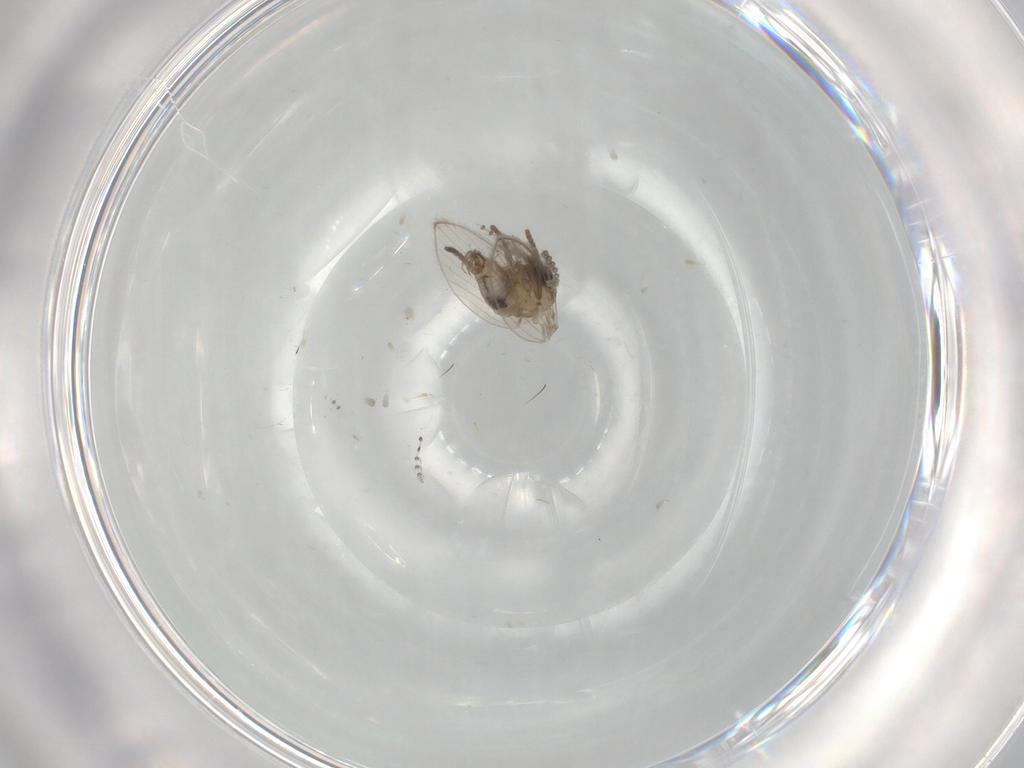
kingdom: Animalia
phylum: Arthropoda
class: Insecta
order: Diptera
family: Psychodidae
